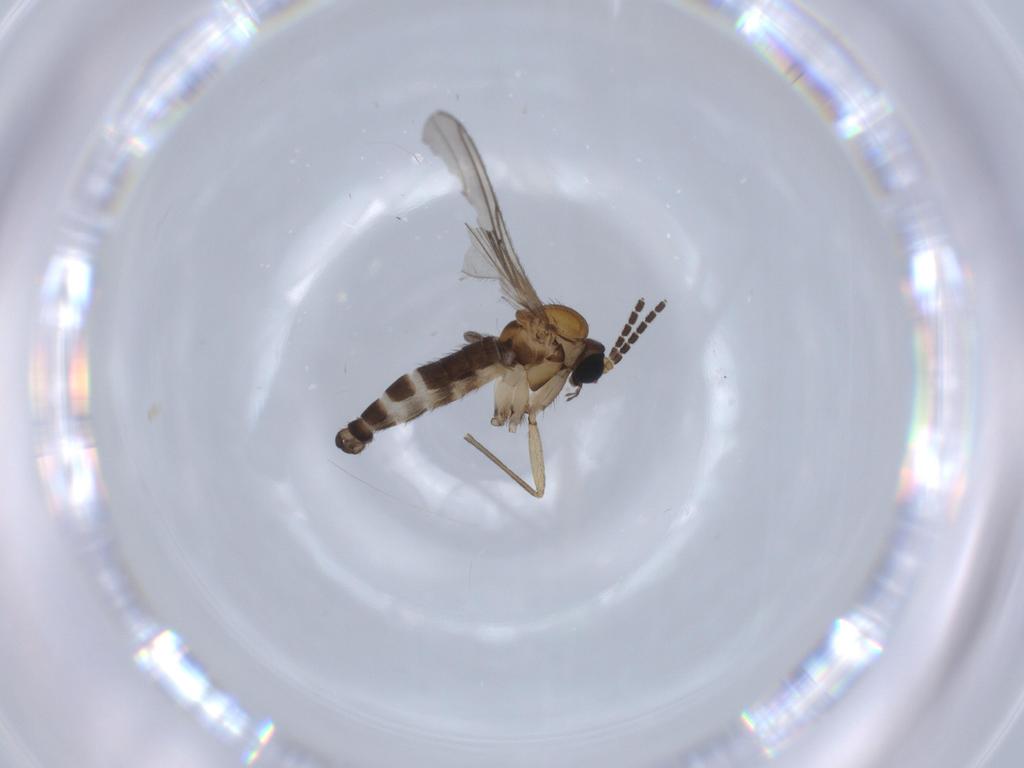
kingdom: Animalia
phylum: Arthropoda
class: Insecta
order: Diptera
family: Sciaridae
